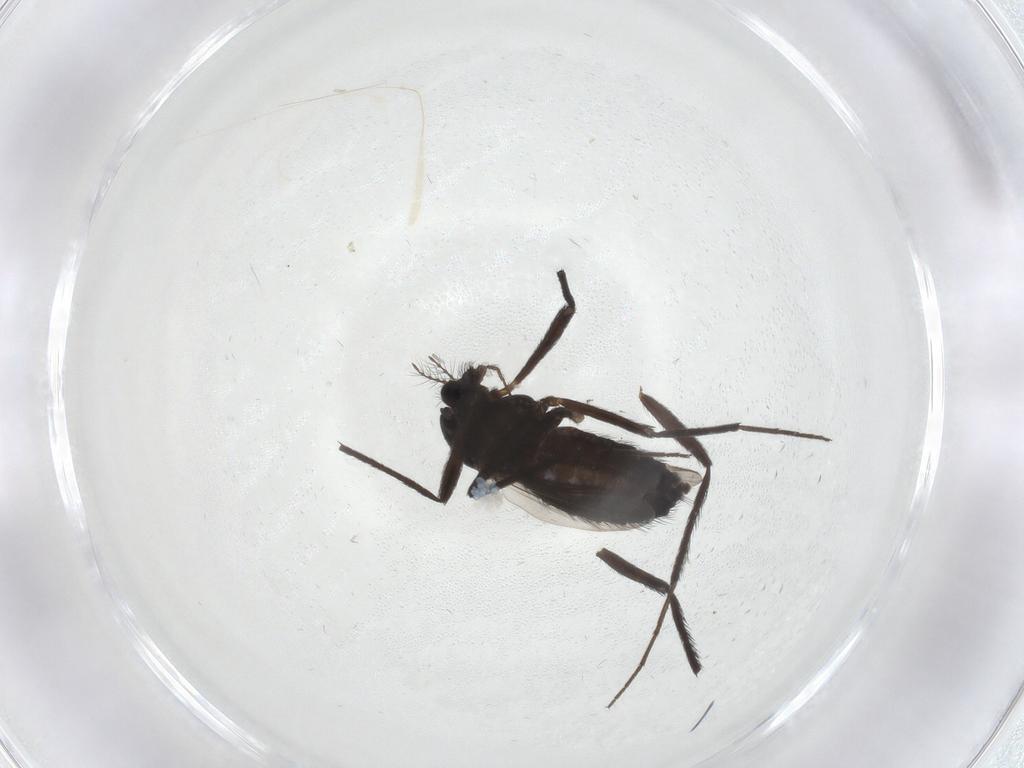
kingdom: Animalia
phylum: Arthropoda
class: Insecta
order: Diptera
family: Chironomidae
